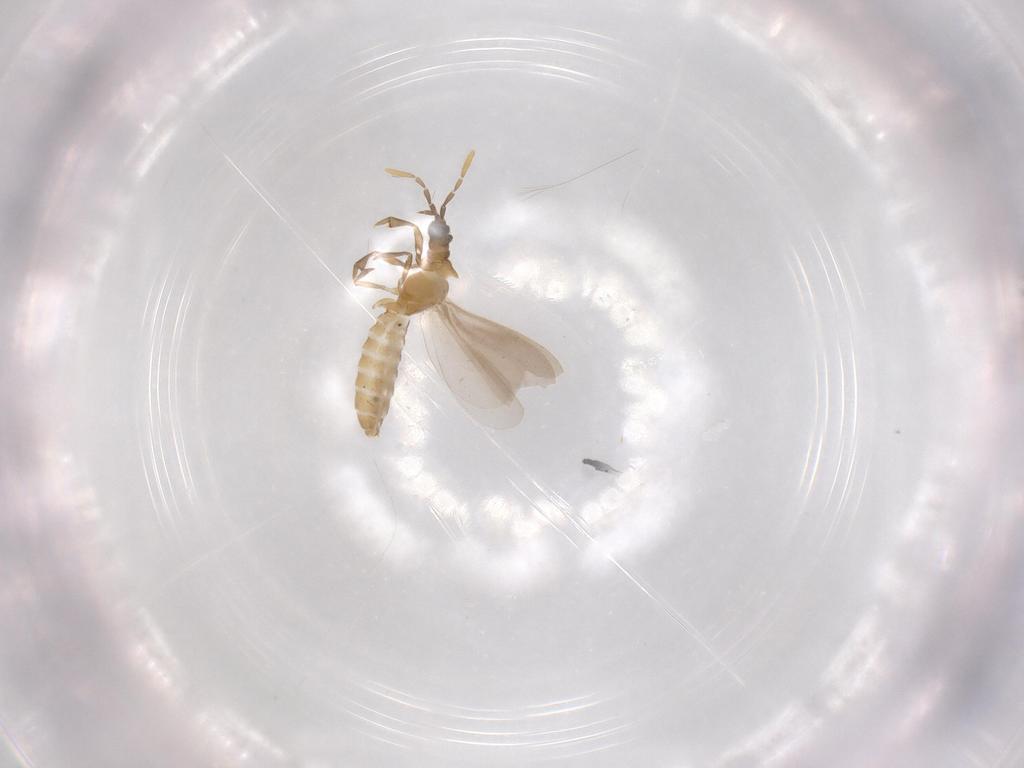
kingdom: Animalia
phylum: Arthropoda
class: Insecta
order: Hemiptera
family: Enicocephalidae
